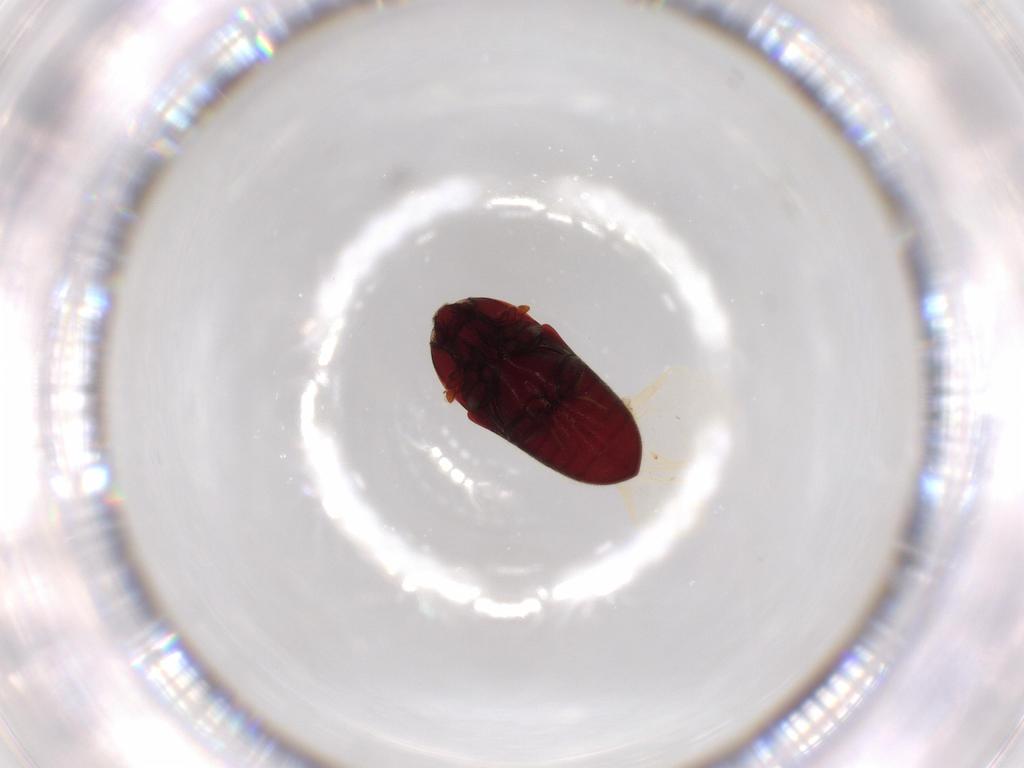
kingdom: Animalia
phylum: Arthropoda
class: Insecta
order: Coleoptera
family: Throscidae
